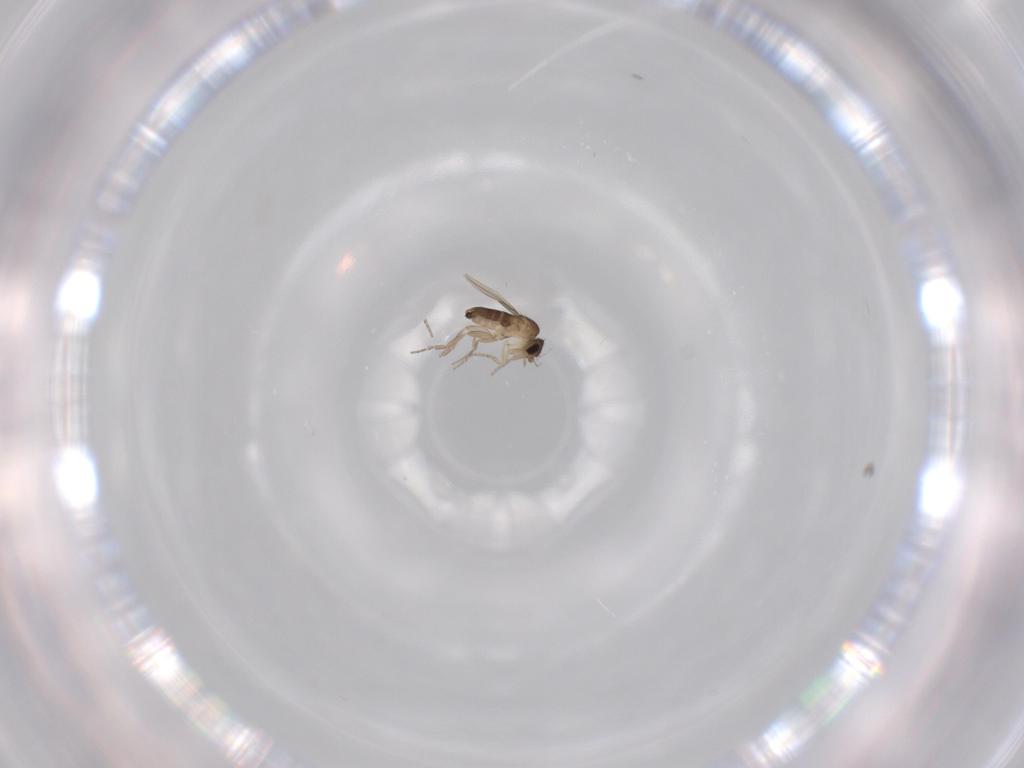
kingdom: Animalia
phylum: Arthropoda
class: Insecta
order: Diptera
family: Phoridae
